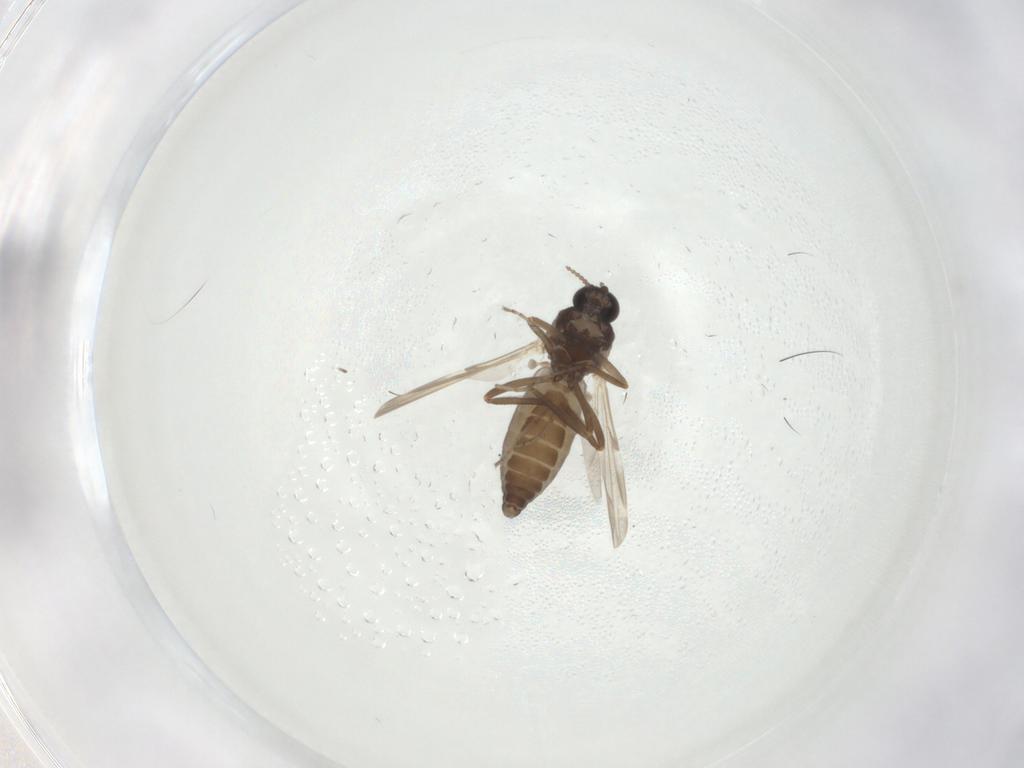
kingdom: Animalia
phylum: Arthropoda
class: Insecta
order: Diptera
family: Ceratopogonidae
